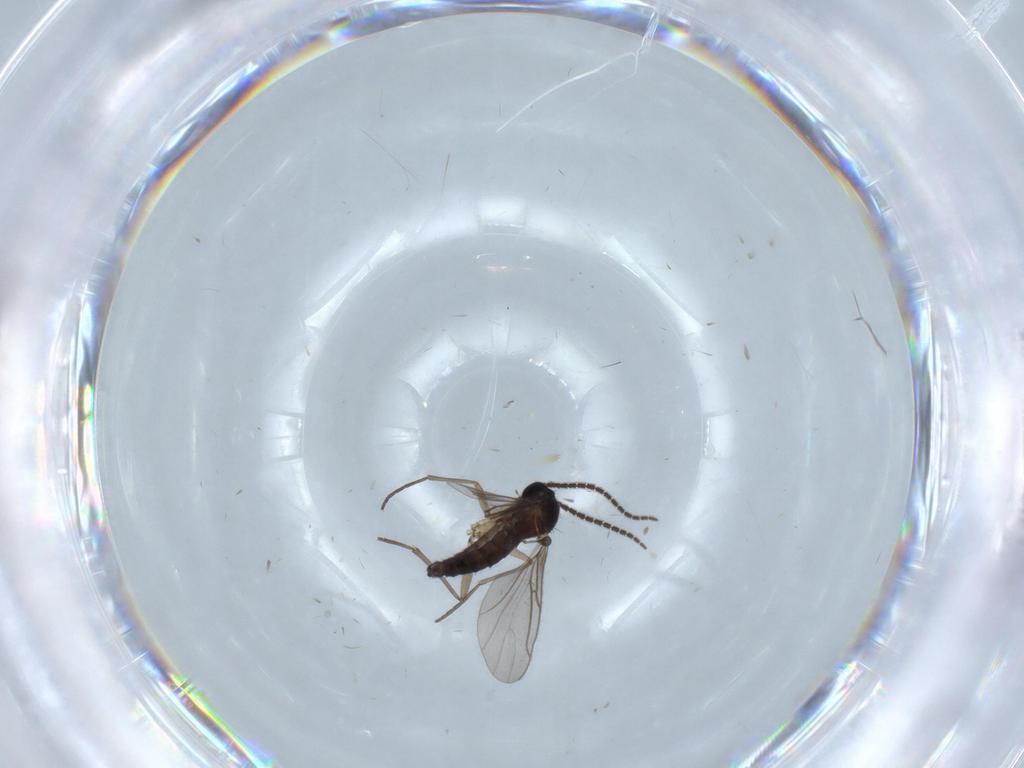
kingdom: Animalia
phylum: Arthropoda
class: Insecta
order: Diptera
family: Sciaridae
